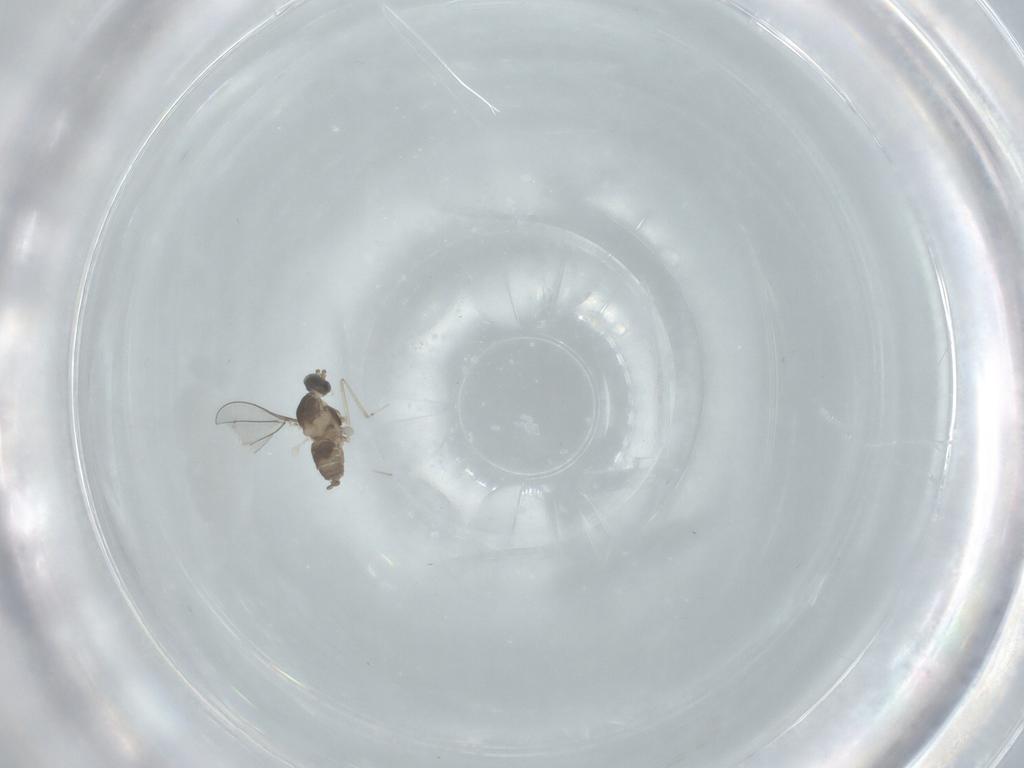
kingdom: Animalia
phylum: Arthropoda
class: Insecta
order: Diptera
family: Cecidomyiidae
